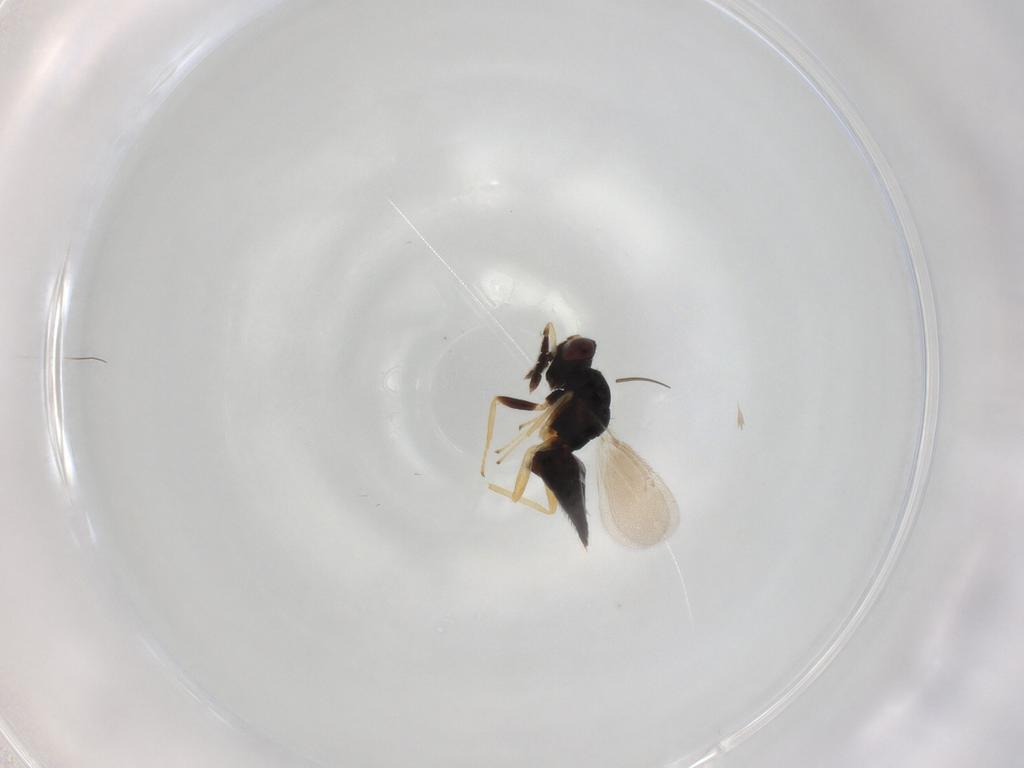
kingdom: Animalia
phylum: Arthropoda
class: Insecta
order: Hymenoptera
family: Eulophidae
